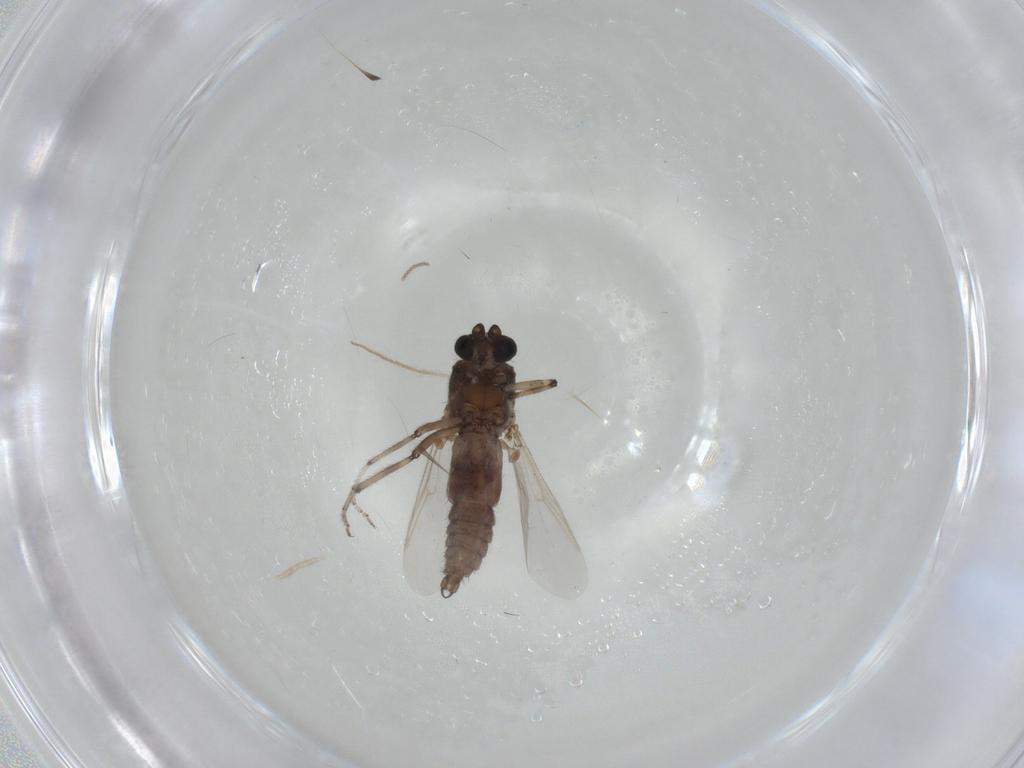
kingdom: Animalia
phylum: Arthropoda
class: Insecta
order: Diptera
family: Ceratopogonidae
